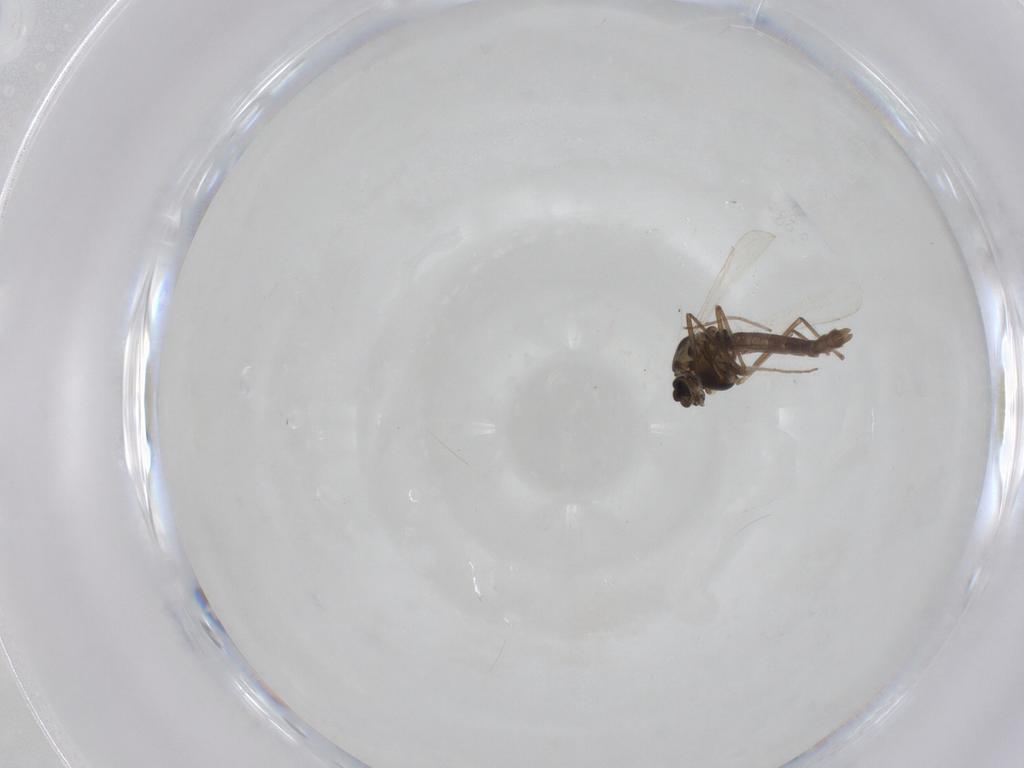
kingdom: Animalia
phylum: Arthropoda
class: Insecta
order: Diptera
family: Chironomidae
